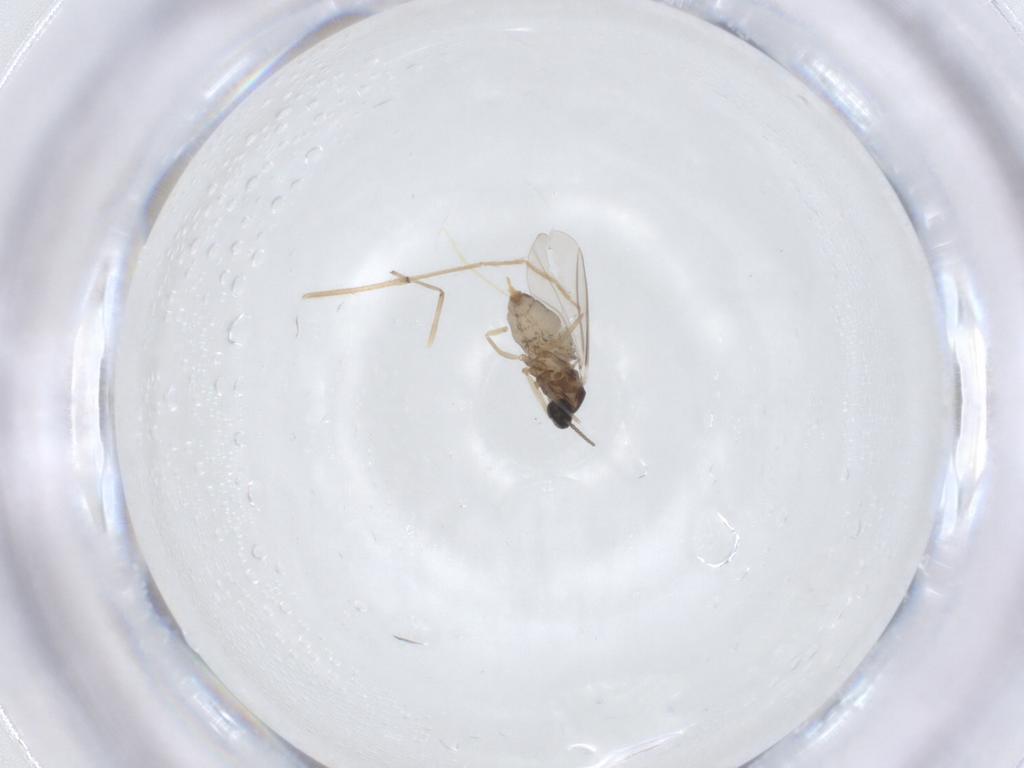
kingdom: Animalia
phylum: Arthropoda
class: Insecta
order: Diptera
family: Cecidomyiidae
